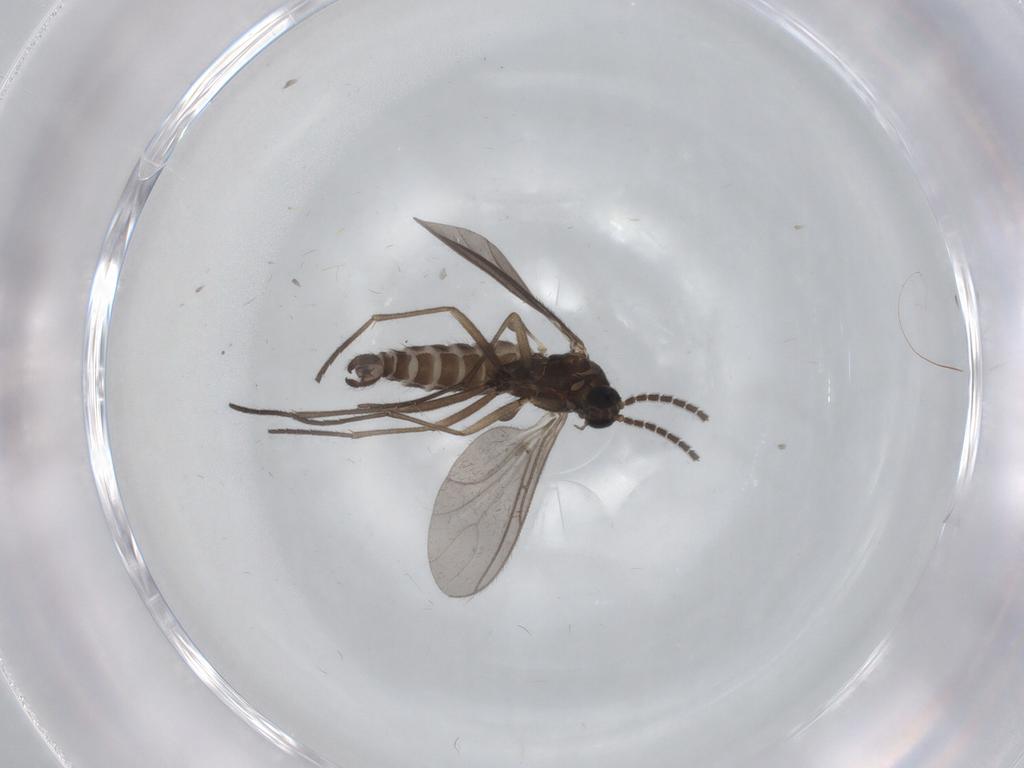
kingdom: Animalia
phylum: Arthropoda
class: Insecta
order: Diptera
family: Sciaridae
